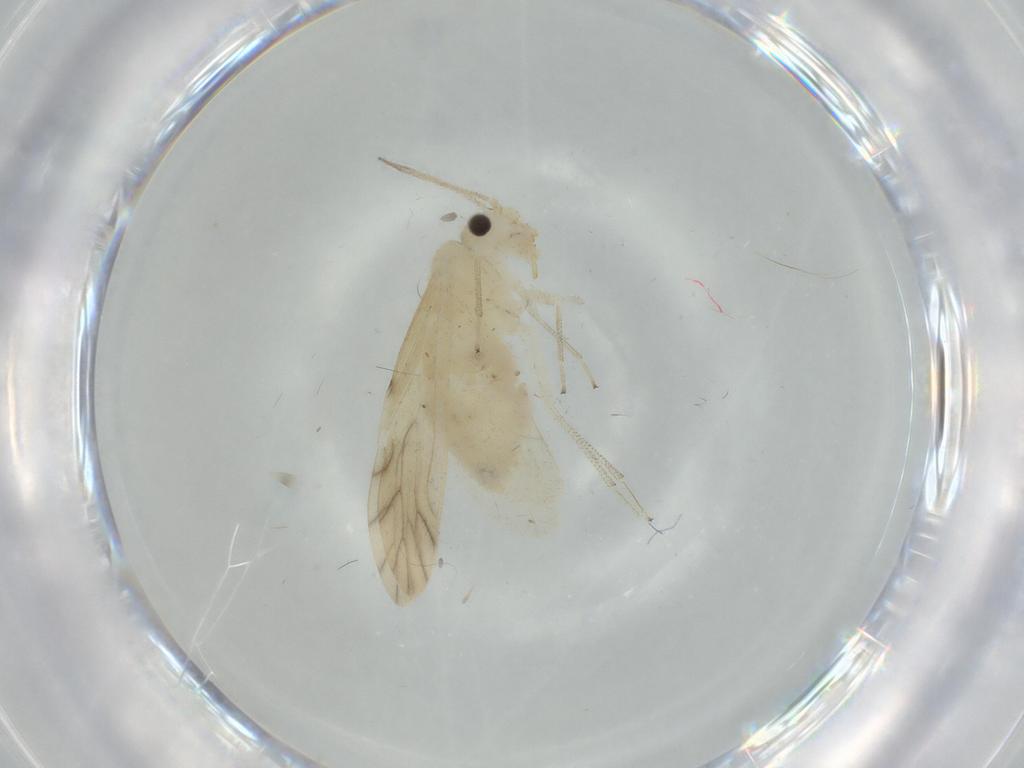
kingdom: Animalia
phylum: Arthropoda
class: Insecta
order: Psocodea
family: Caeciliusidae
